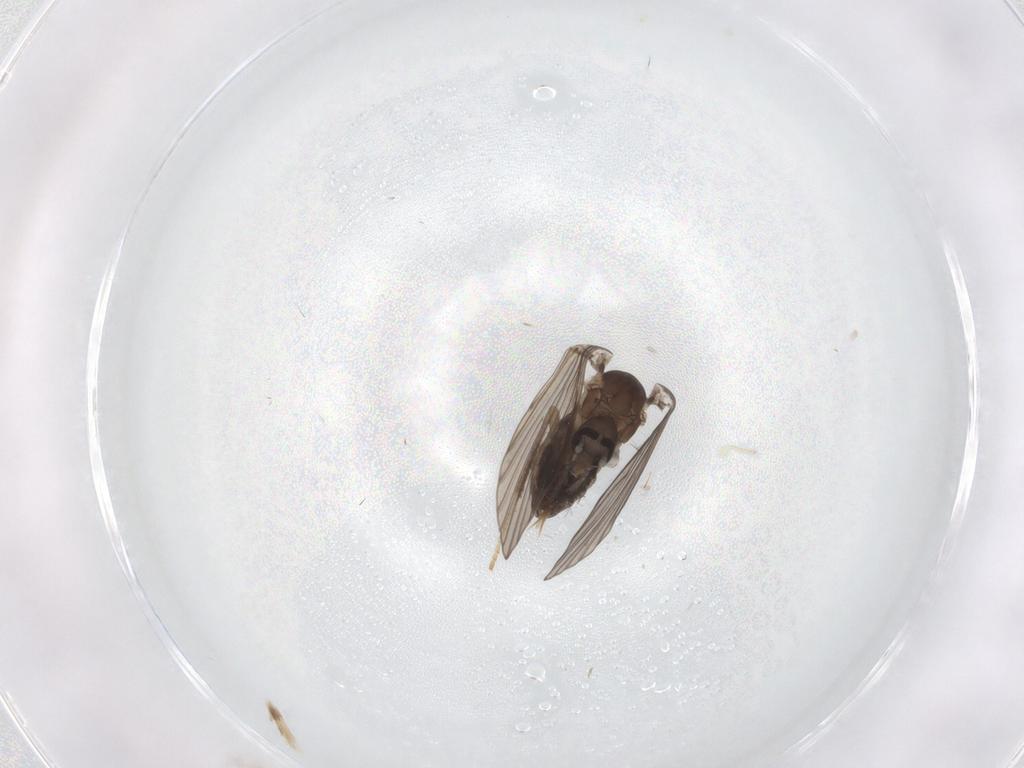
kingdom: Animalia
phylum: Arthropoda
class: Insecta
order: Diptera
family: Psychodidae
